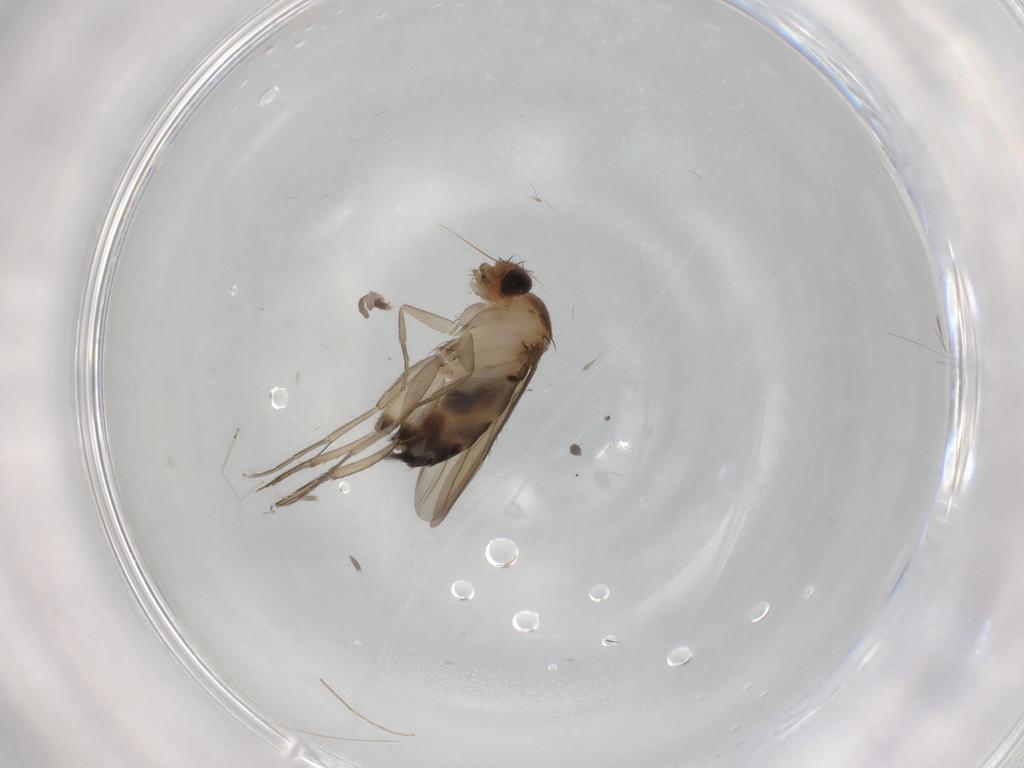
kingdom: Animalia
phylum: Arthropoda
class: Insecta
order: Diptera
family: Phoridae
